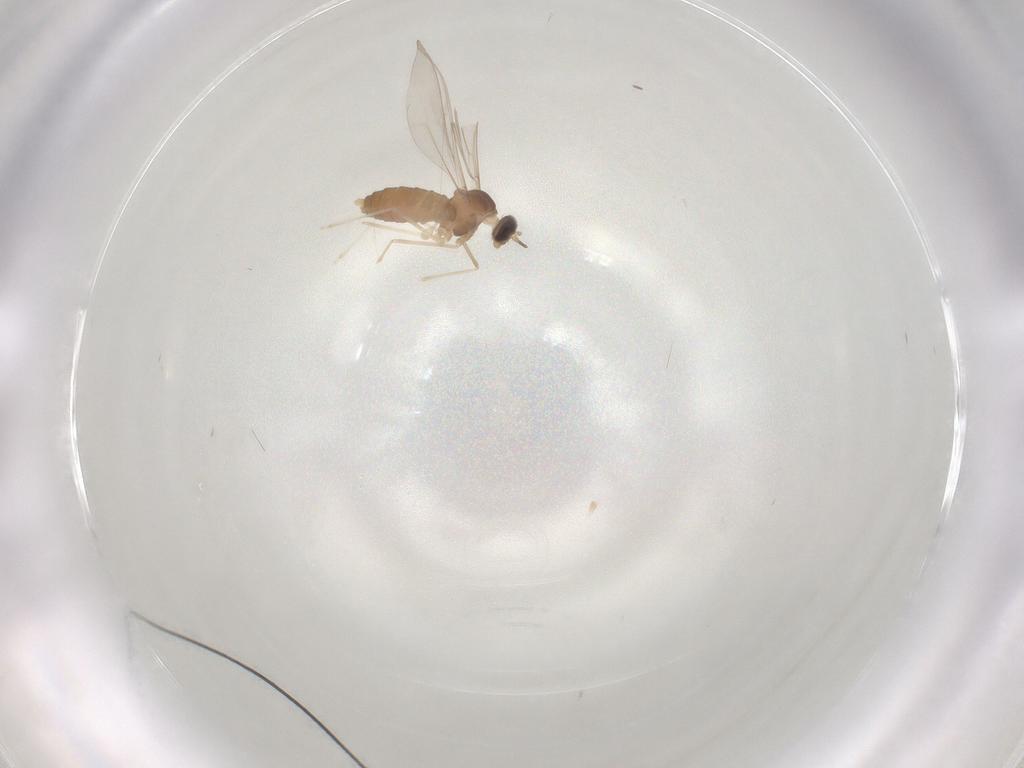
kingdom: Animalia
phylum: Arthropoda
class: Insecta
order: Diptera
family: Cecidomyiidae
